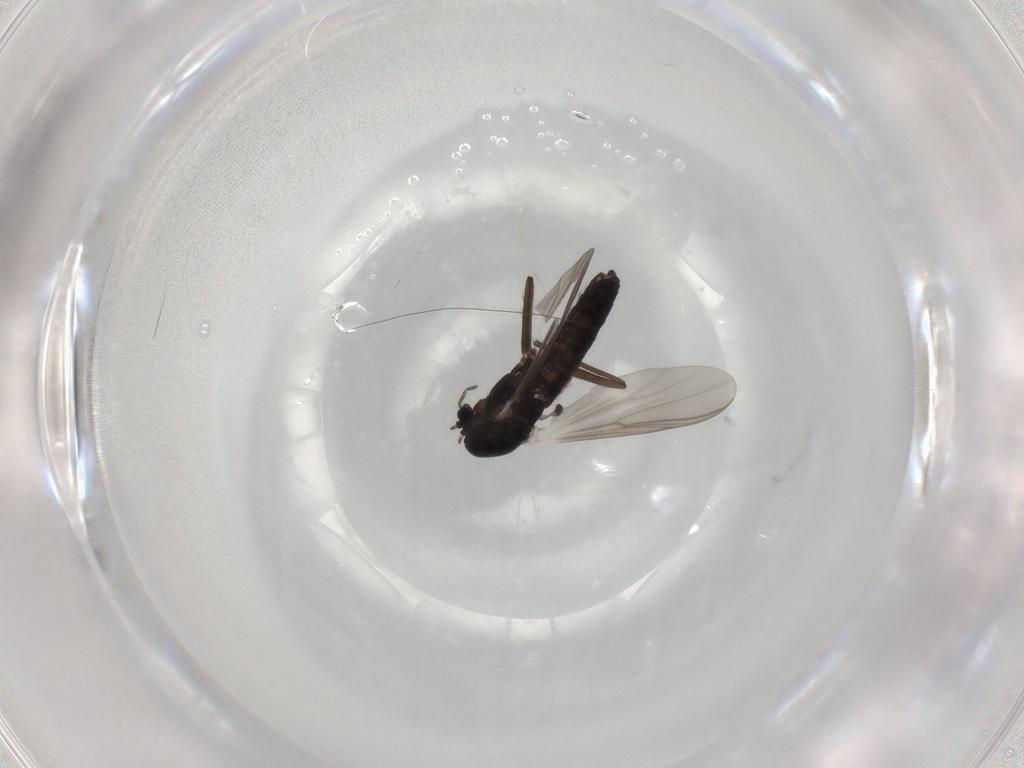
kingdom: Animalia
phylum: Arthropoda
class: Insecta
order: Diptera
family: Chironomidae
